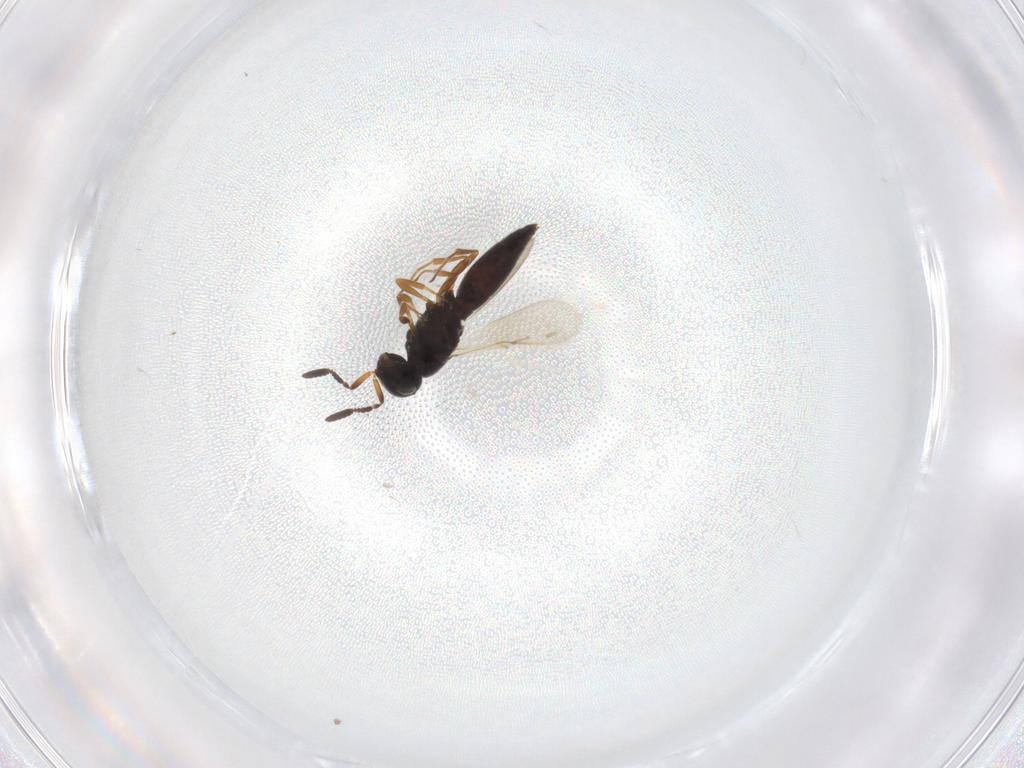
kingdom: Animalia
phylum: Arthropoda
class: Insecta
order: Hymenoptera
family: Scelionidae
